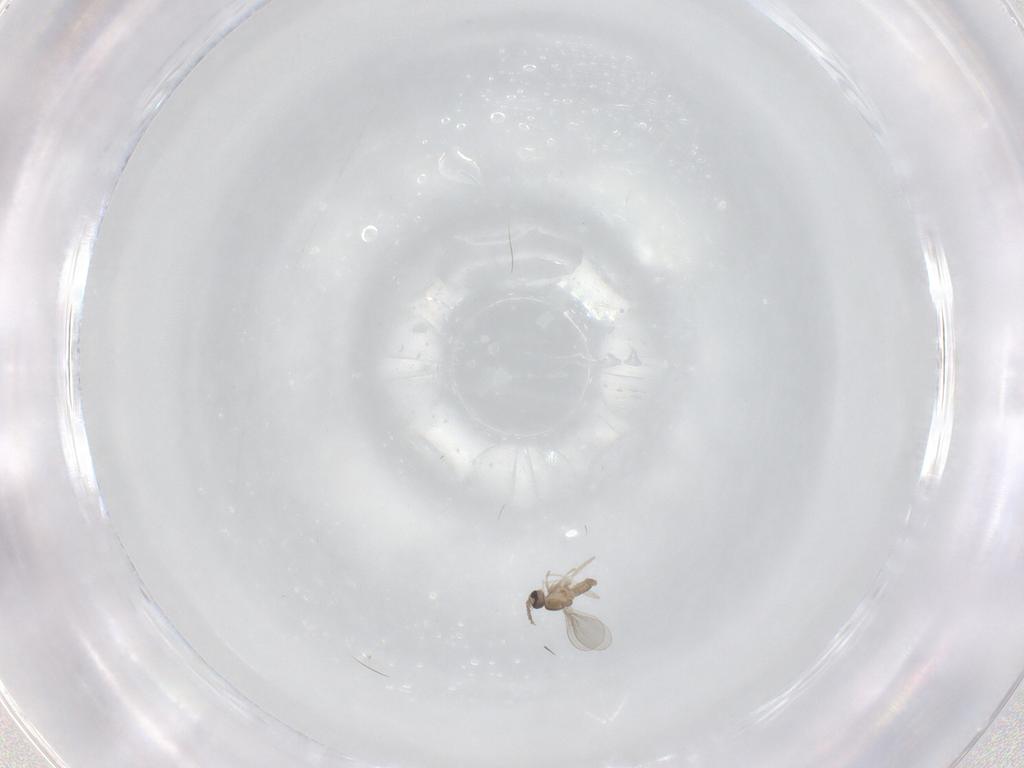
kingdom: Animalia
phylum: Arthropoda
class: Insecta
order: Diptera
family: Cecidomyiidae
